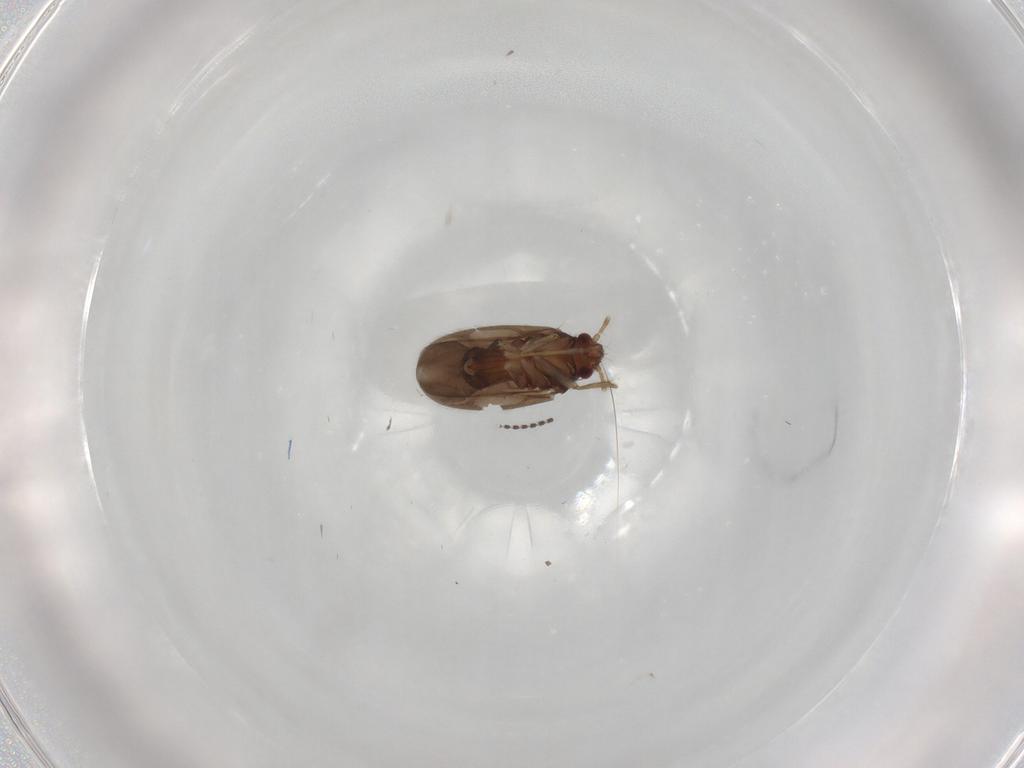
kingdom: Animalia
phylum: Arthropoda
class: Insecta
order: Hemiptera
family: Ceratocombidae
